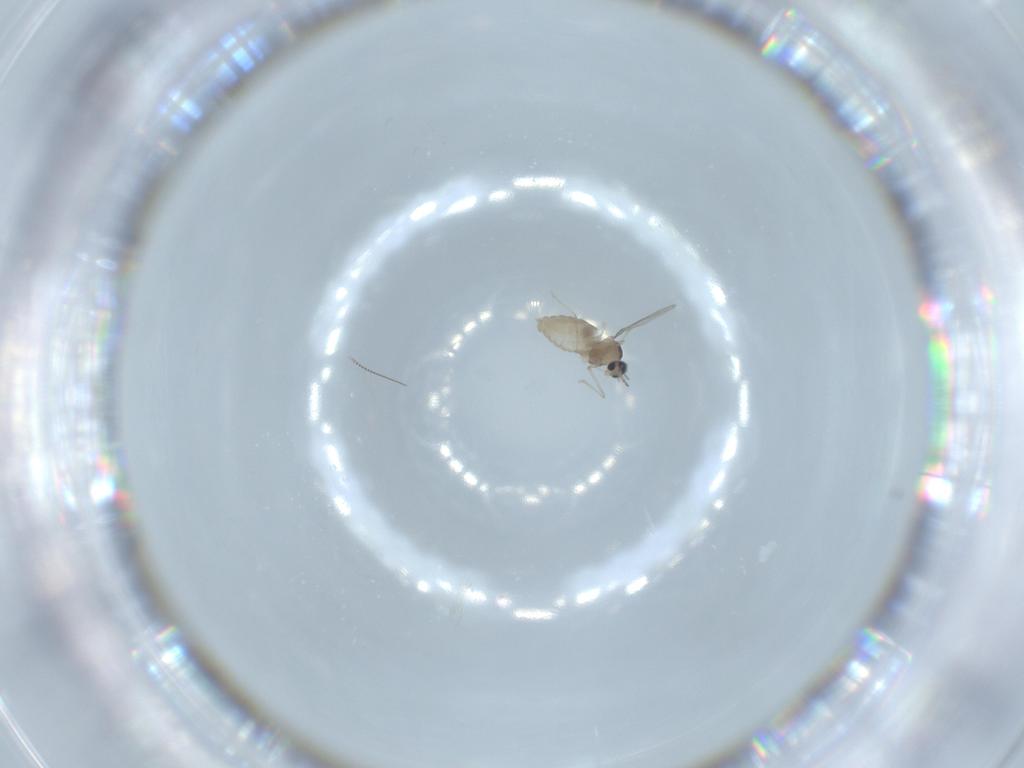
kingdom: Animalia
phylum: Arthropoda
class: Insecta
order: Diptera
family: Cecidomyiidae
